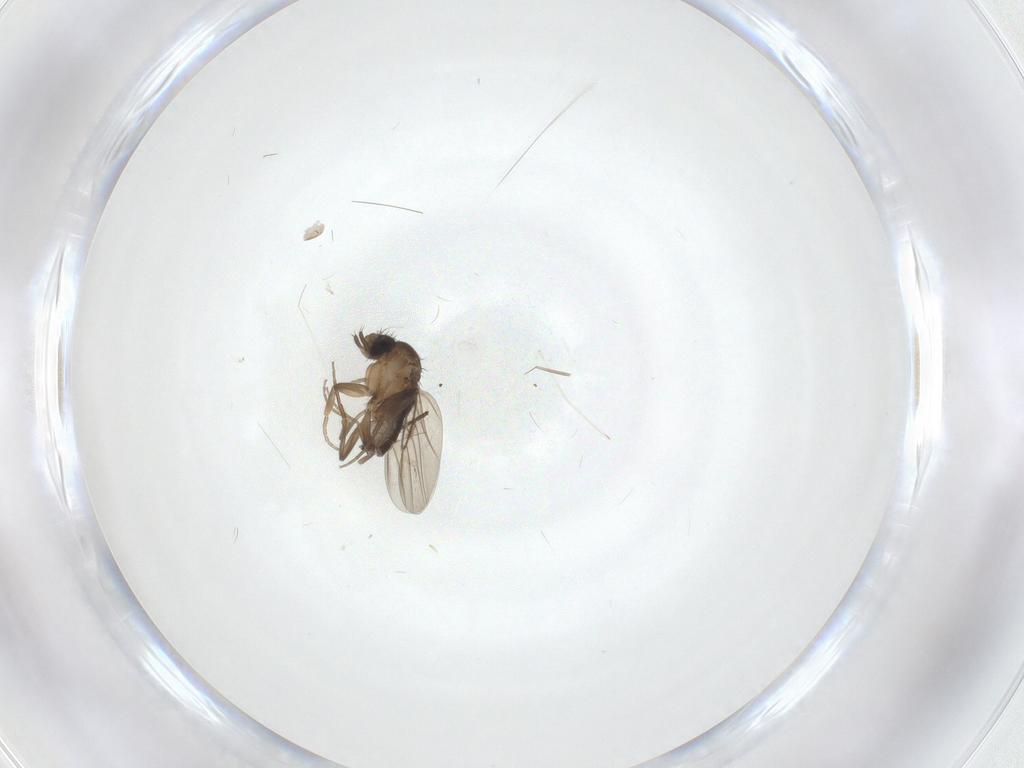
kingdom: Animalia
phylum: Arthropoda
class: Insecta
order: Diptera
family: Phoridae
